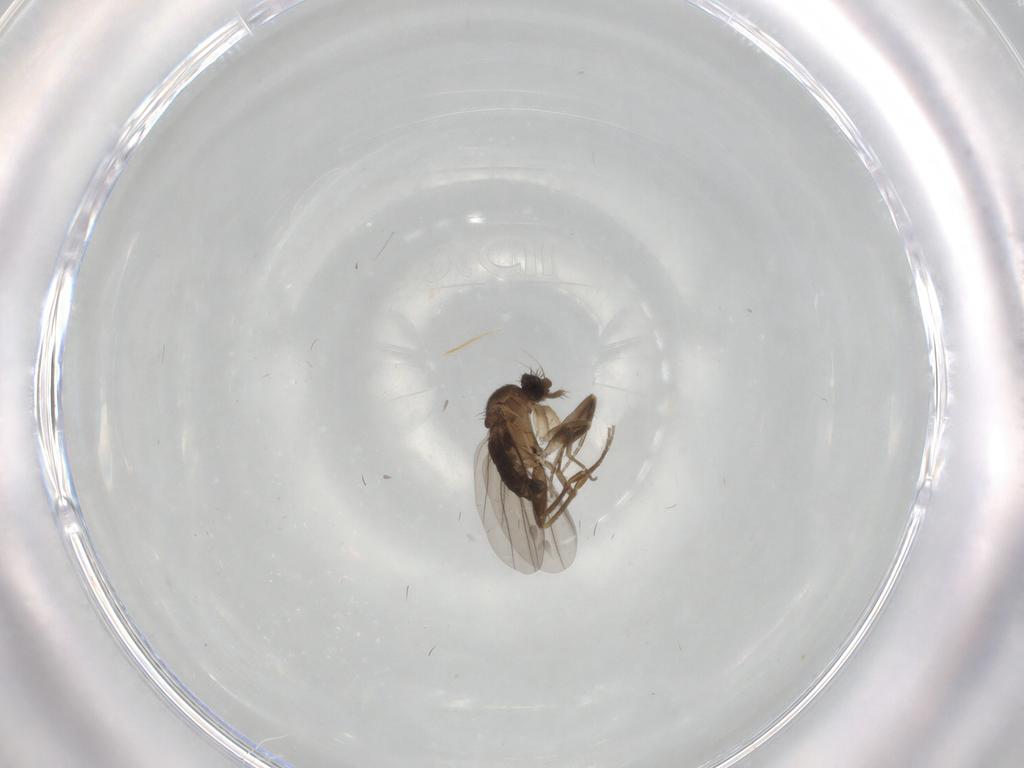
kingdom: Animalia
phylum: Arthropoda
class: Insecta
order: Diptera
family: Chironomidae
